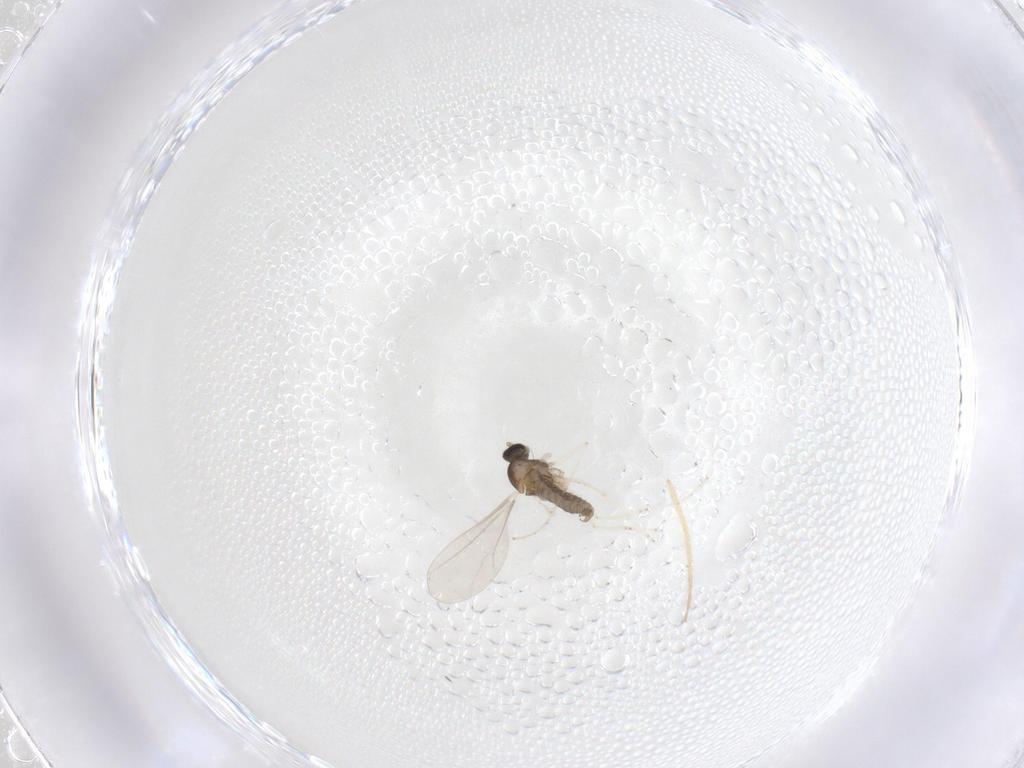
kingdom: Animalia
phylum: Arthropoda
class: Insecta
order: Diptera
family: Cecidomyiidae
